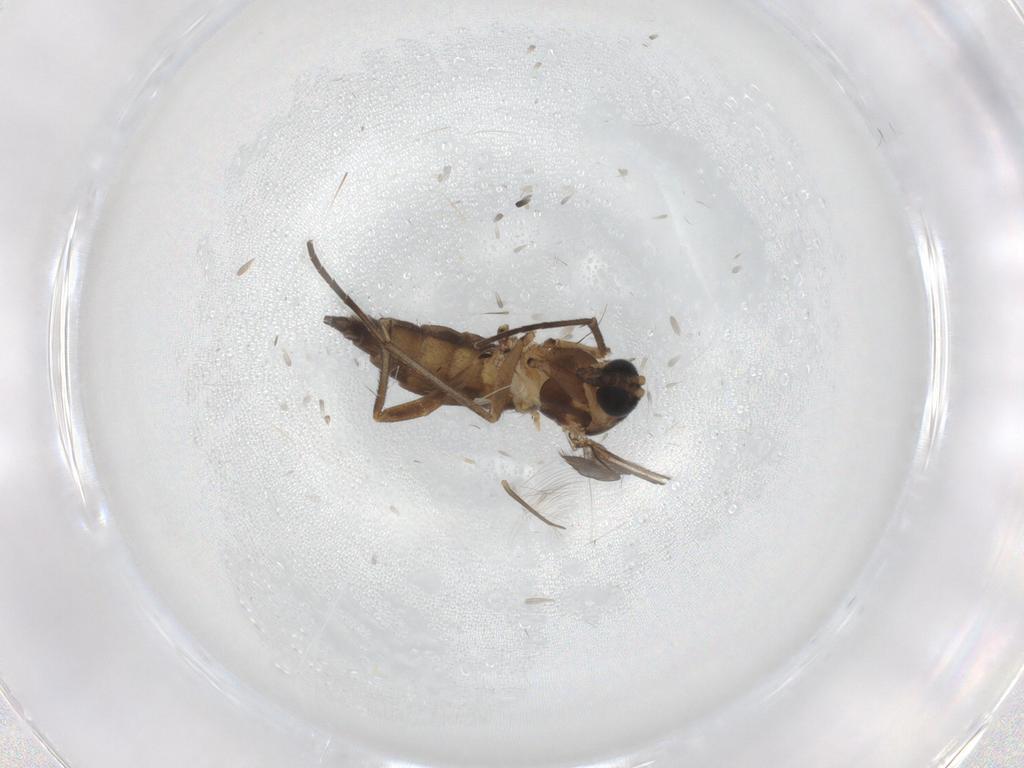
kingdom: Animalia
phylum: Arthropoda
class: Insecta
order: Diptera
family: Sciaridae
